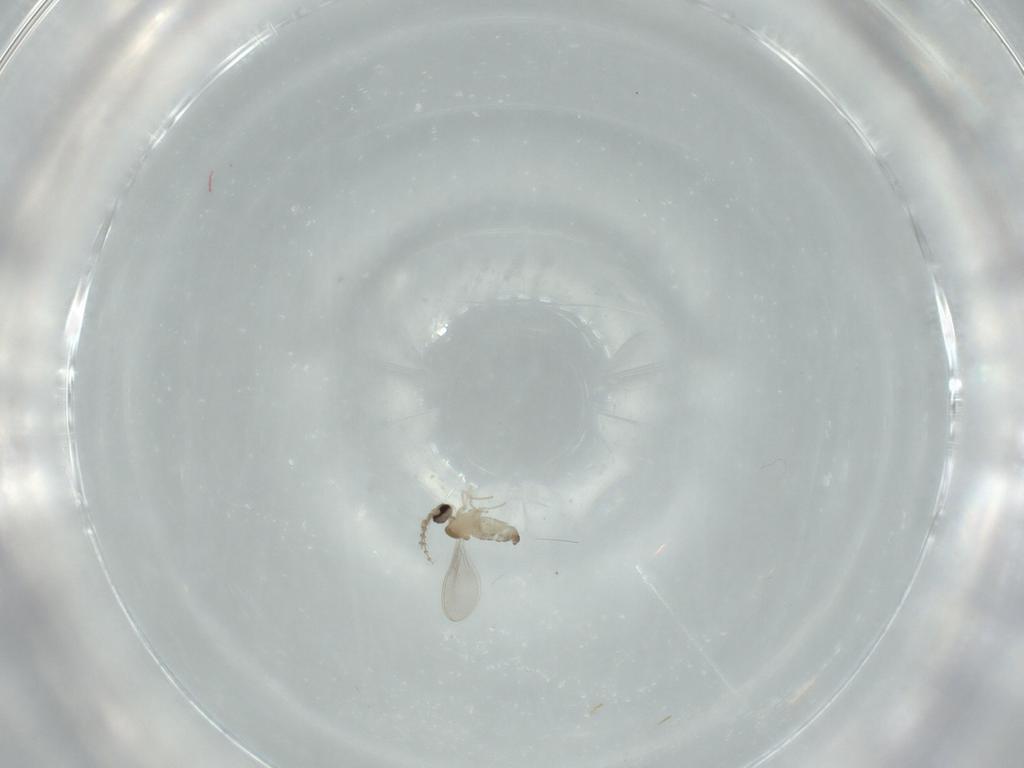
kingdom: Animalia
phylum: Arthropoda
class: Insecta
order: Diptera
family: Cecidomyiidae
